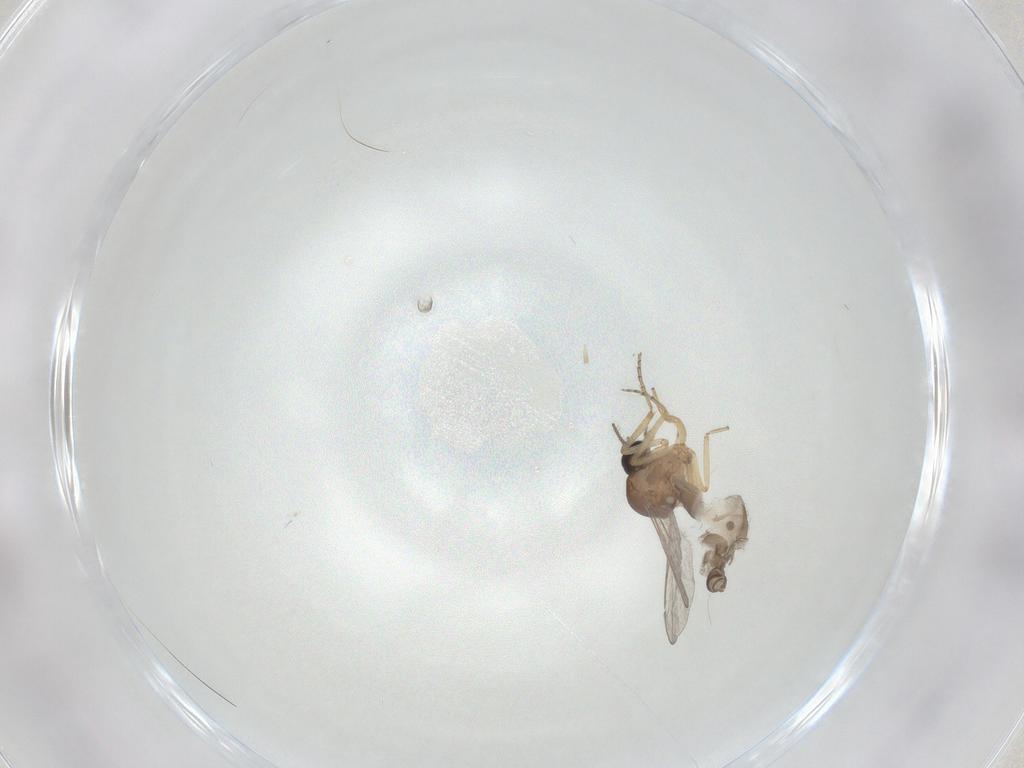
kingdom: Animalia
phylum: Arthropoda
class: Insecta
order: Diptera
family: Ceratopogonidae
